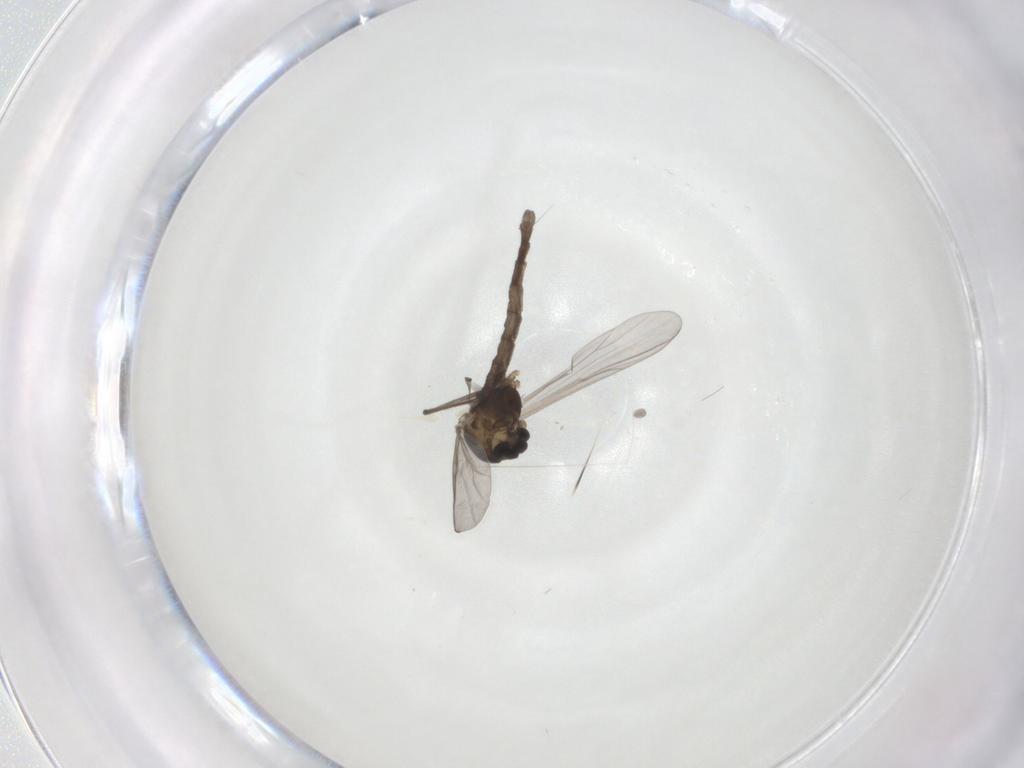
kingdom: Animalia
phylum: Arthropoda
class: Insecta
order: Diptera
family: Chironomidae
